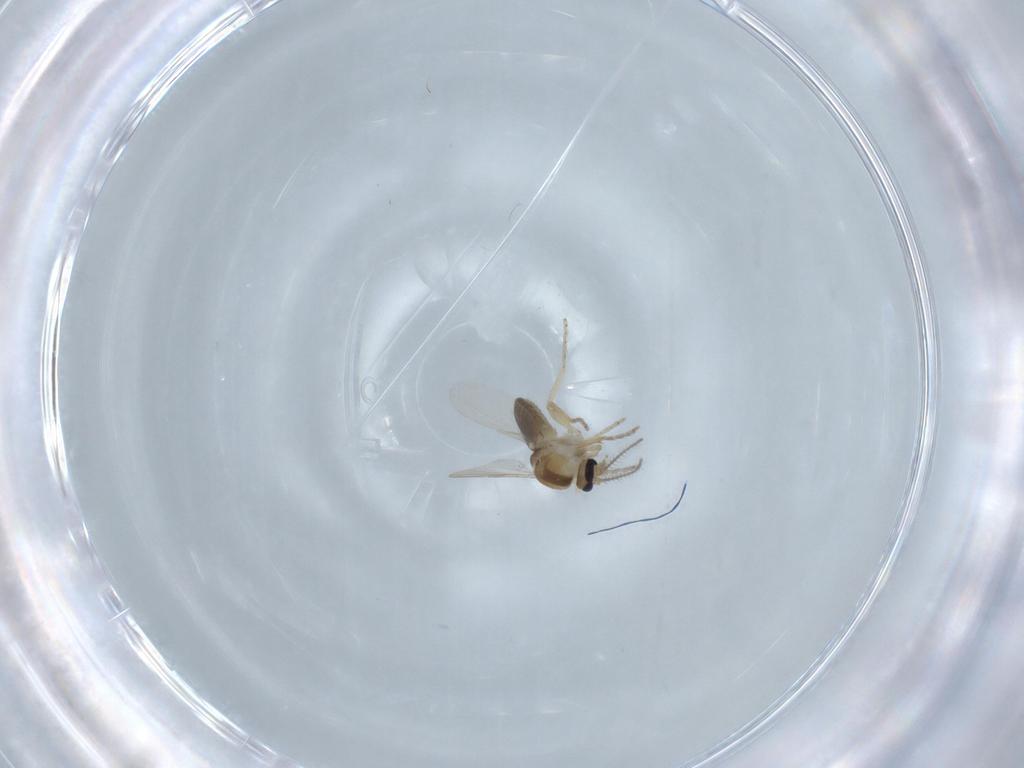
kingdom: Animalia
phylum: Arthropoda
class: Insecta
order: Diptera
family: Ceratopogonidae
